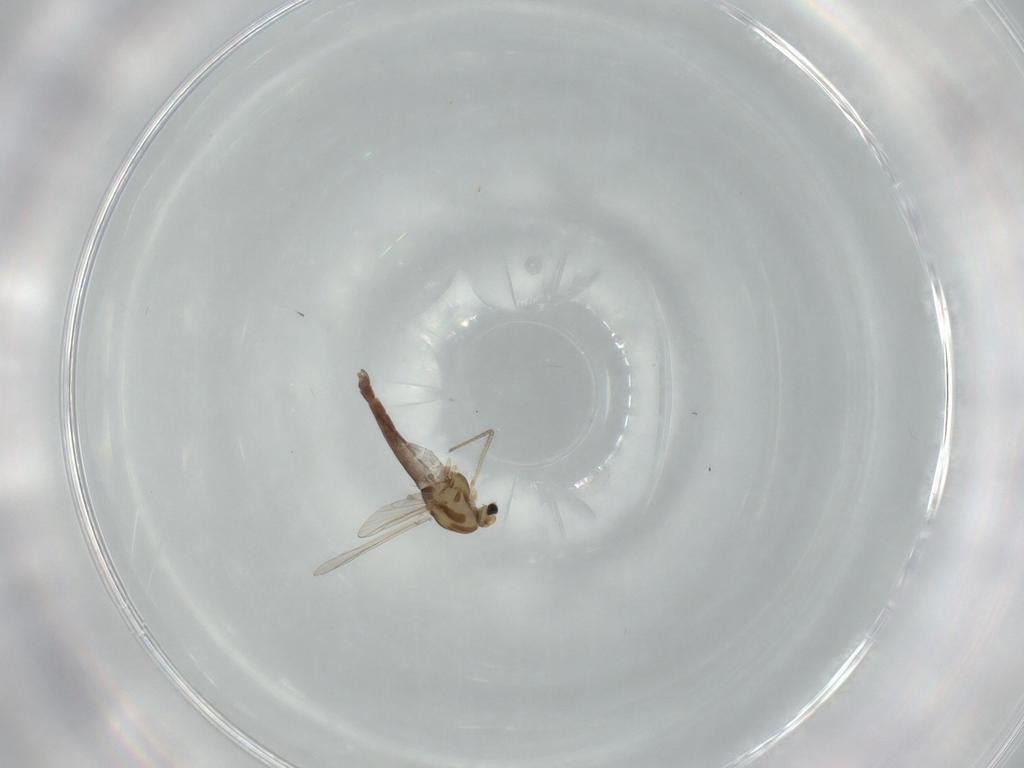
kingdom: Animalia
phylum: Arthropoda
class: Insecta
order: Diptera
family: Chironomidae
